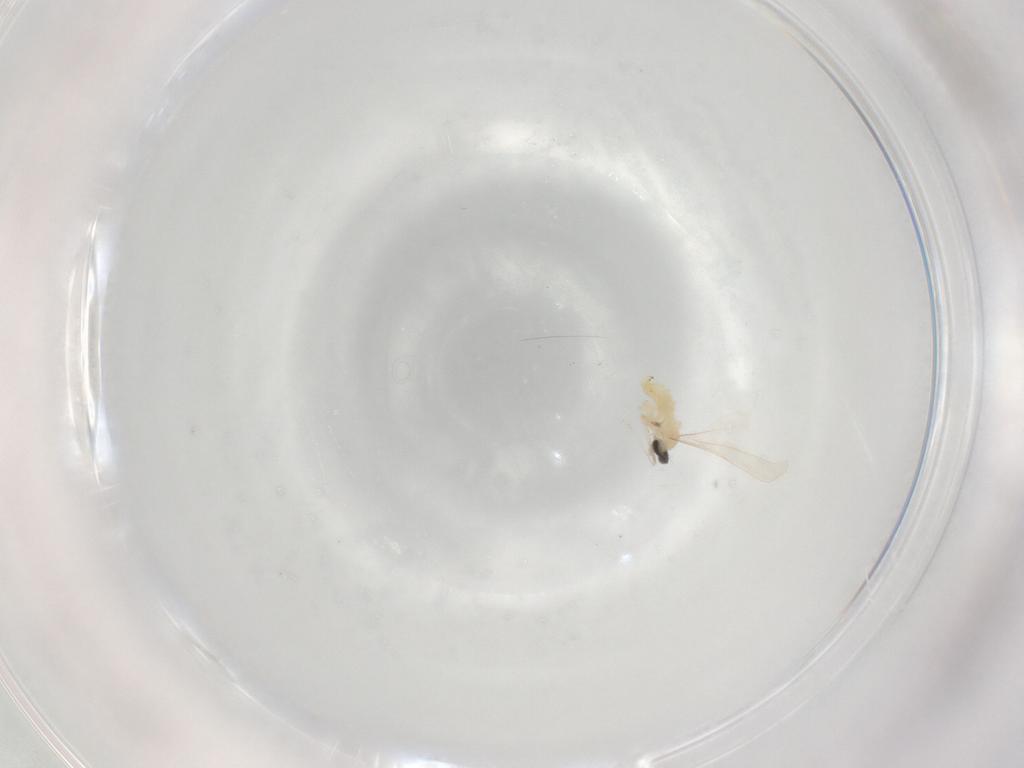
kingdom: Animalia
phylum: Arthropoda
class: Insecta
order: Diptera
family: Cecidomyiidae
